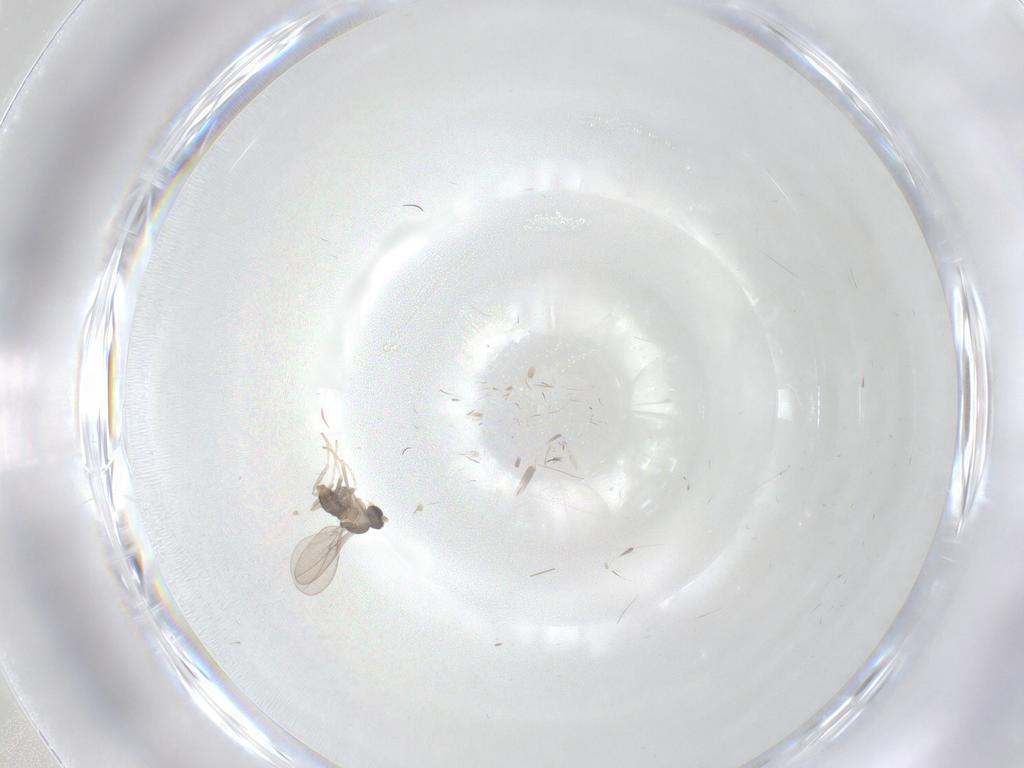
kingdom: Animalia
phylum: Arthropoda
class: Insecta
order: Diptera
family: Cecidomyiidae
